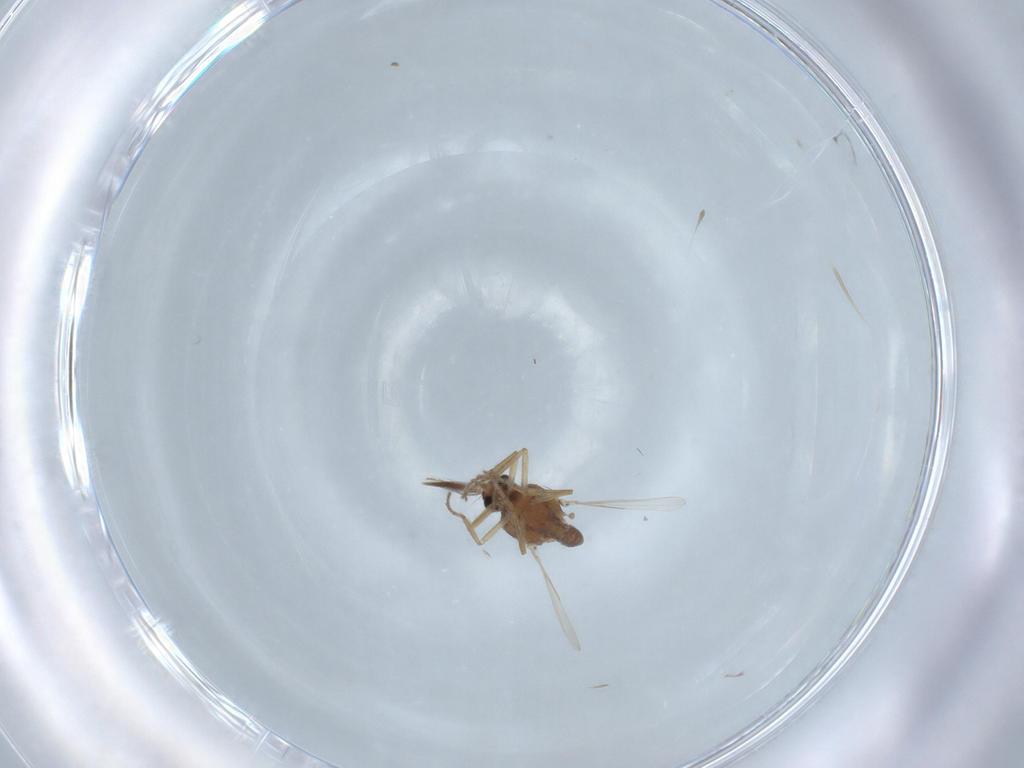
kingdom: Animalia
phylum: Arthropoda
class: Insecta
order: Diptera
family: Ceratopogonidae
